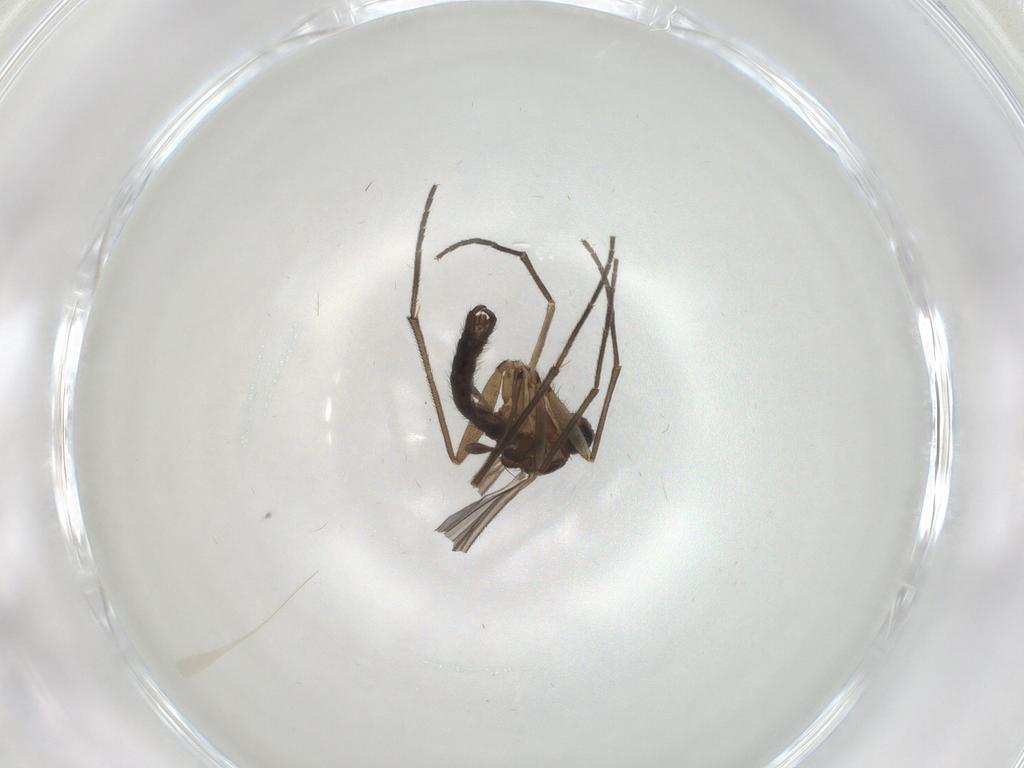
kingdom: Animalia
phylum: Arthropoda
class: Insecta
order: Diptera
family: Sciaridae
